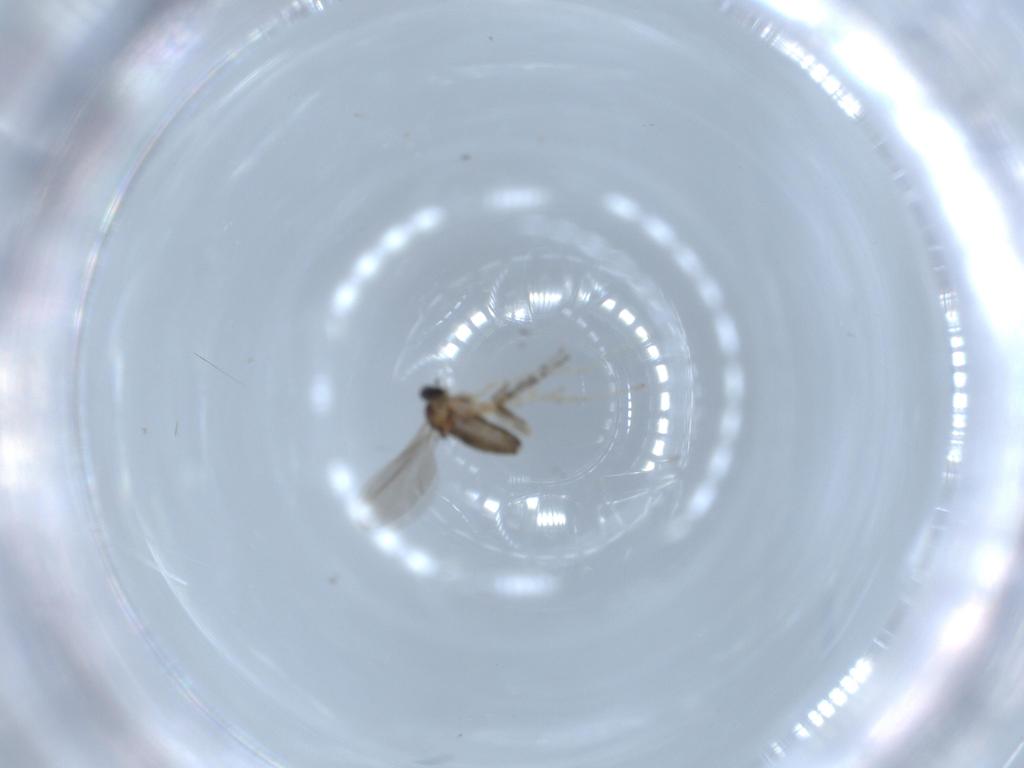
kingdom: Animalia
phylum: Arthropoda
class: Insecta
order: Diptera
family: Cecidomyiidae
